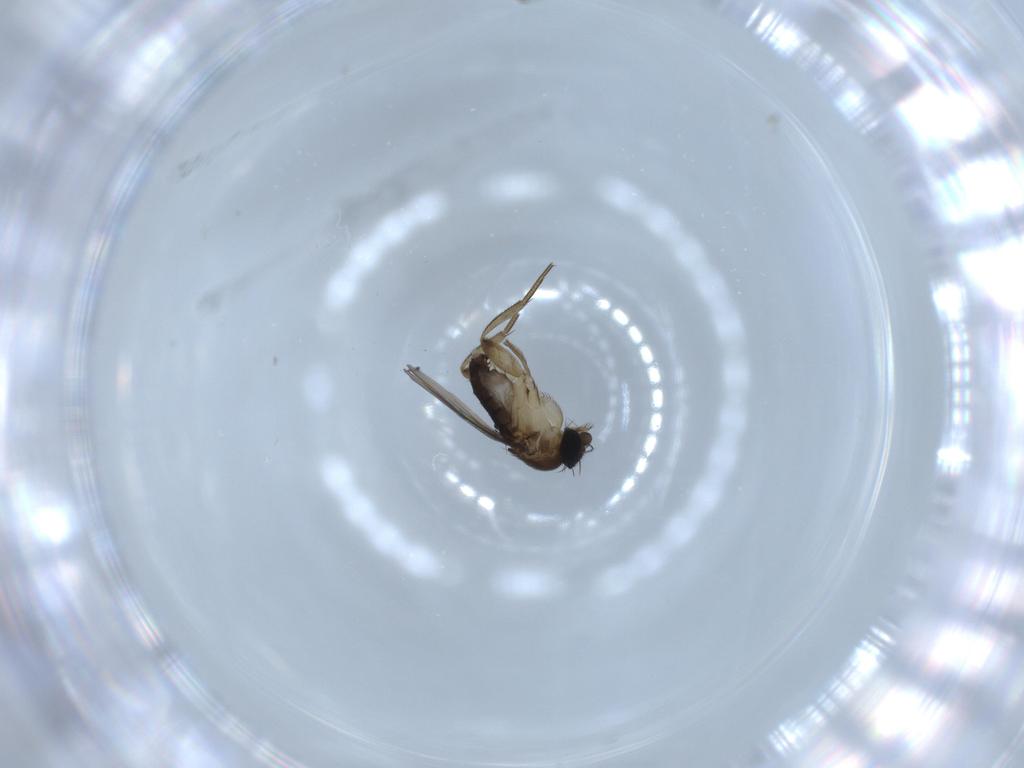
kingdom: Animalia
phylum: Arthropoda
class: Insecta
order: Diptera
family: Phoridae
